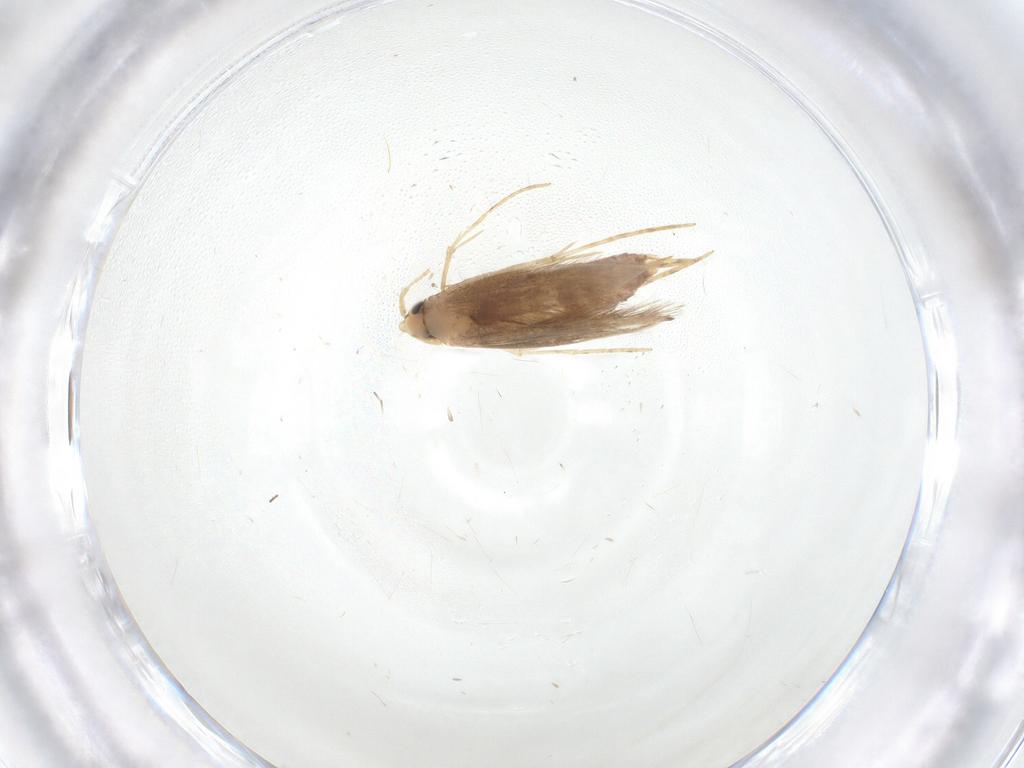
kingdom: Animalia
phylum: Arthropoda
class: Insecta
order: Lepidoptera
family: Lyonetiidae
